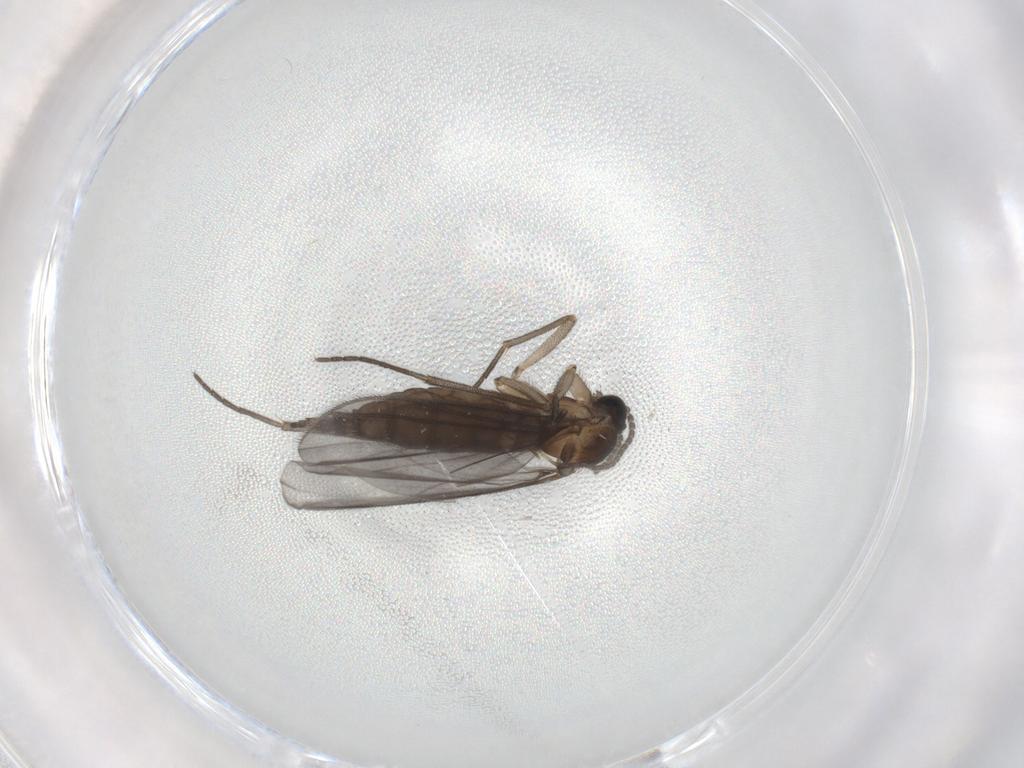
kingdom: Animalia
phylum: Arthropoda
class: Insecta
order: Diptera
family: Sciaridae
